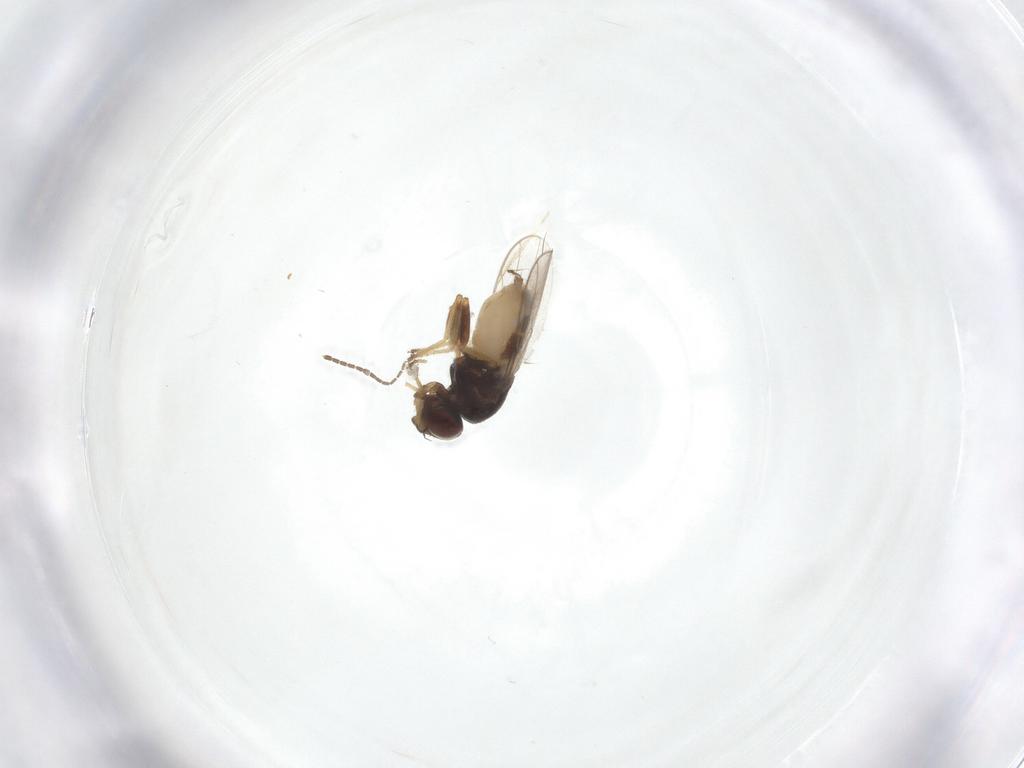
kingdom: Animalia
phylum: Arthropoda
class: Insecta
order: Diptera
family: Chloropidae
